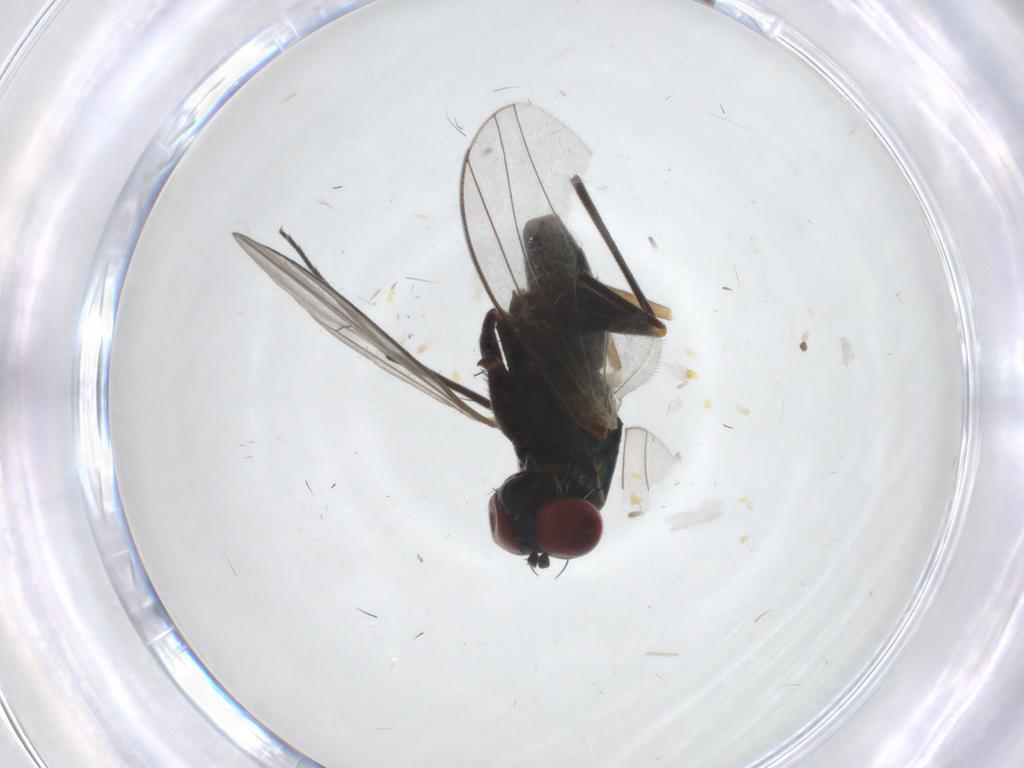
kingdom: Animalia
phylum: Arthropoda
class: Insecta
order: Diptera
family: Dolichopodidae
